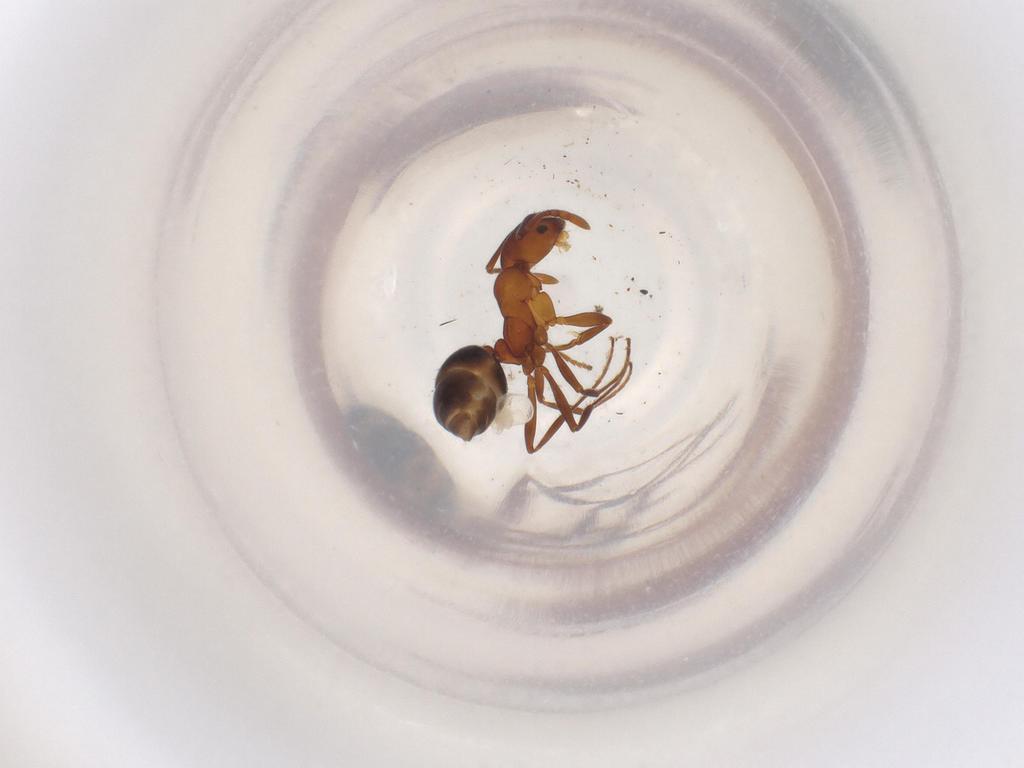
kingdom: Animalia
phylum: Arthropoda
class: Insecta
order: Hymenoptera
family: Formicidae
